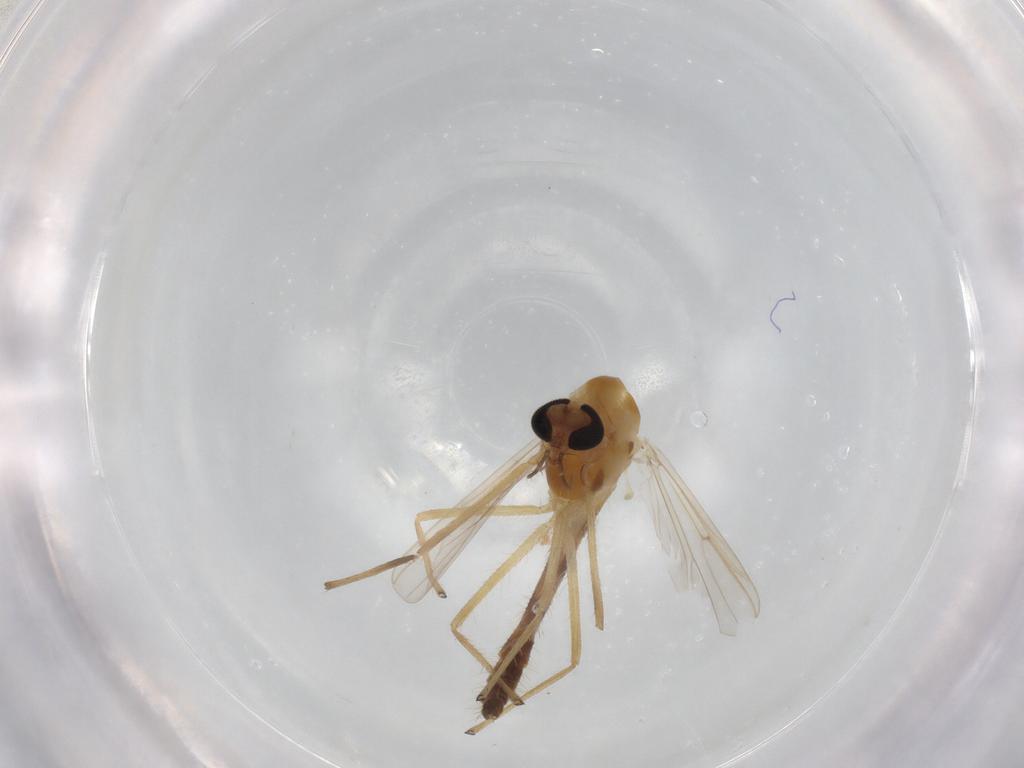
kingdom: Animalia
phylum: Arthropoda
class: Insecta
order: Diptera
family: Chironomidae
